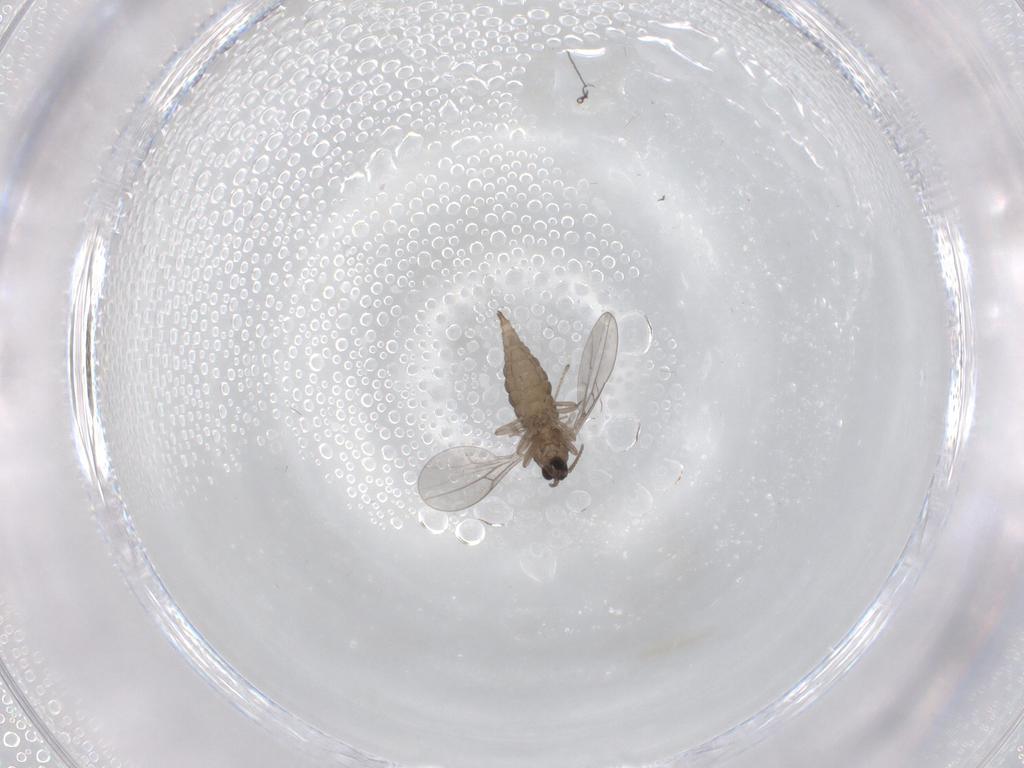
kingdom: Animalia
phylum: Arthropoda
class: Insecta
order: Diptera
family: Cecidomyiidae
